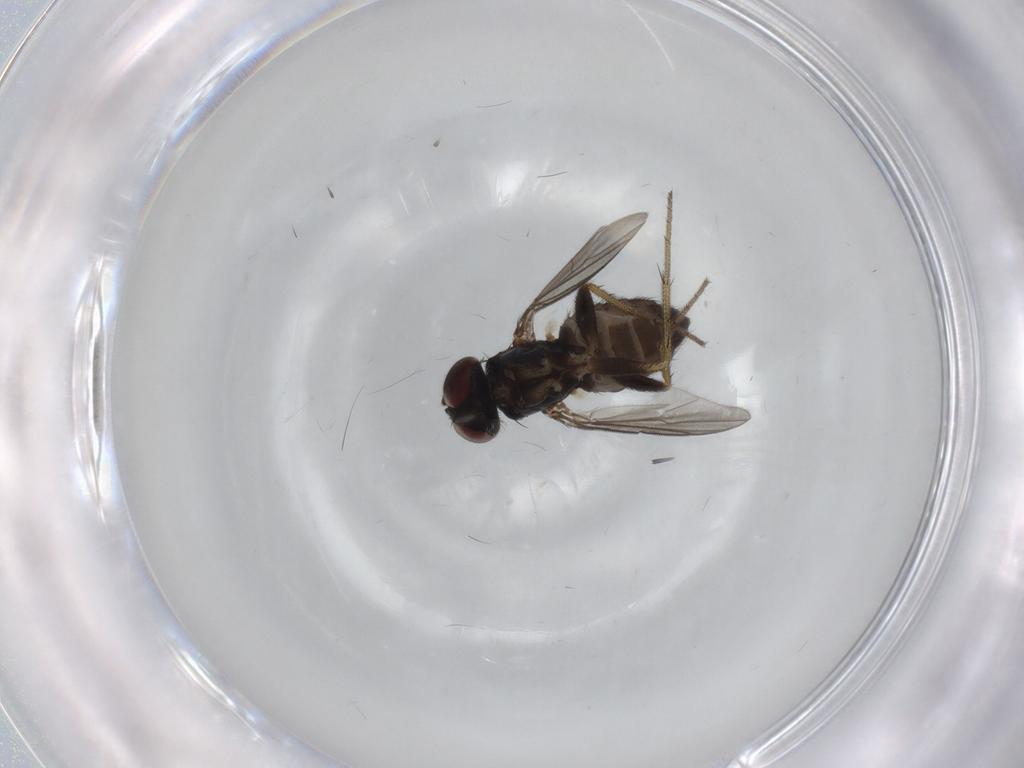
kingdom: Animalia
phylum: Arthropoda
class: Insecta
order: Diptera
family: Dolichopodidae
